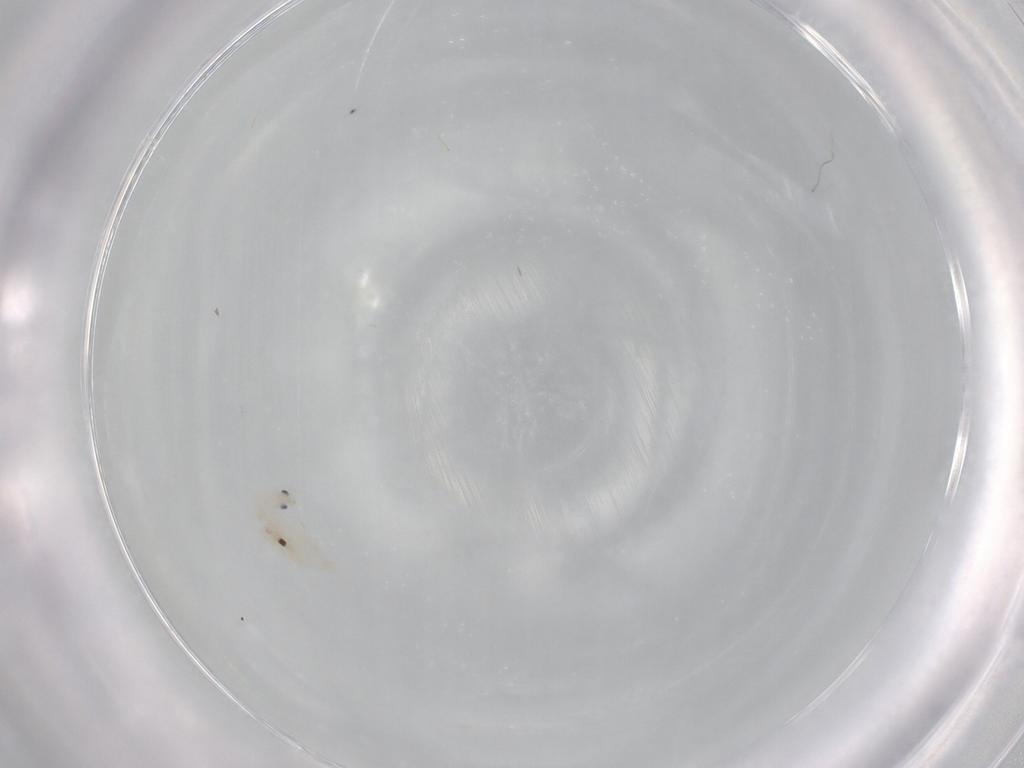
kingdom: Animalia
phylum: Arthropoda
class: Collembola
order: Entomobryomorpha
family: Entomobryidae
